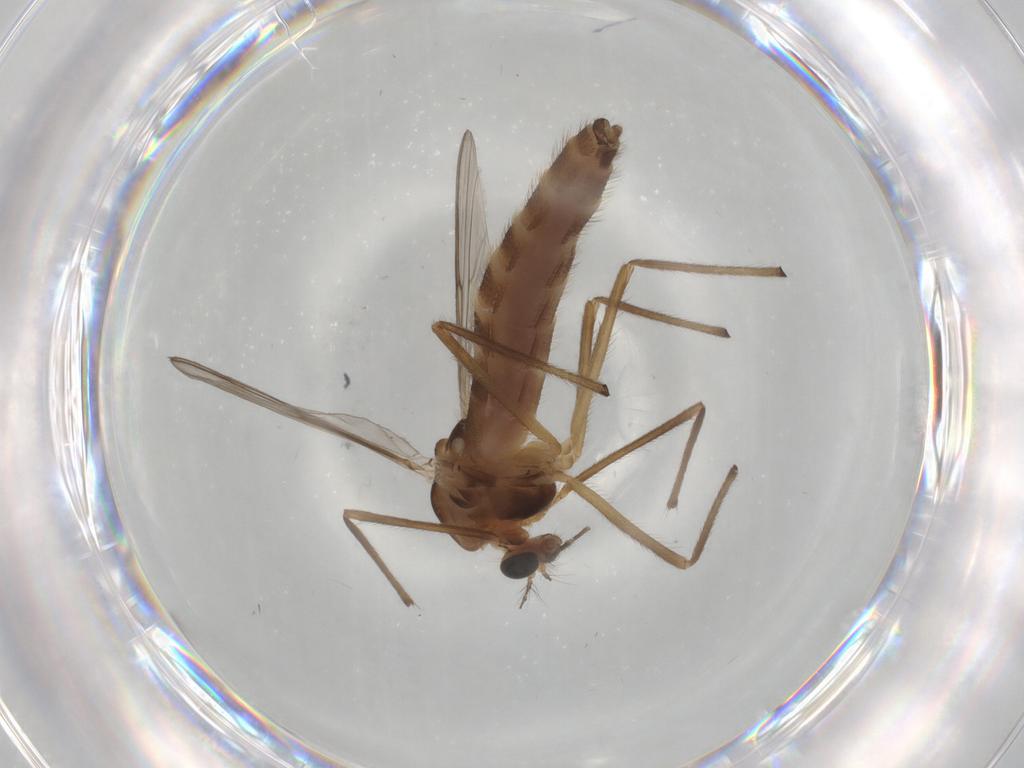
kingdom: Animalia
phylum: Arthropoda
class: Insecta
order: Diptera
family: Chironomidae
